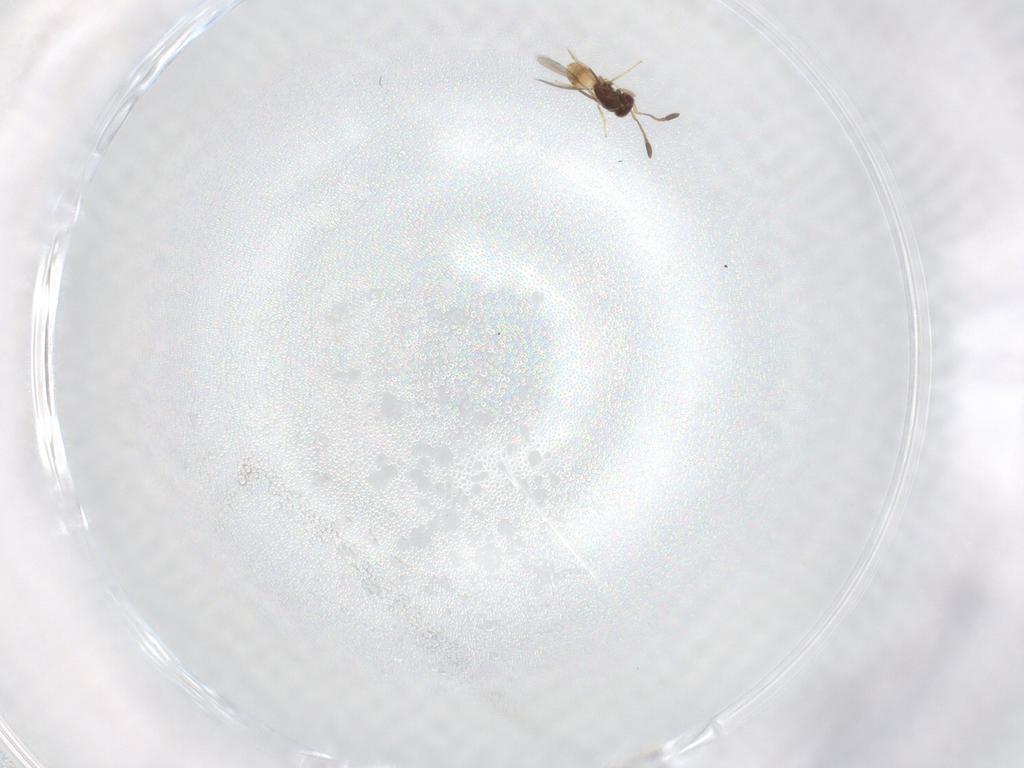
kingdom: Animalia
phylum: Arthropoda
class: Insecta
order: Hymenoptera
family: Mymaridae
